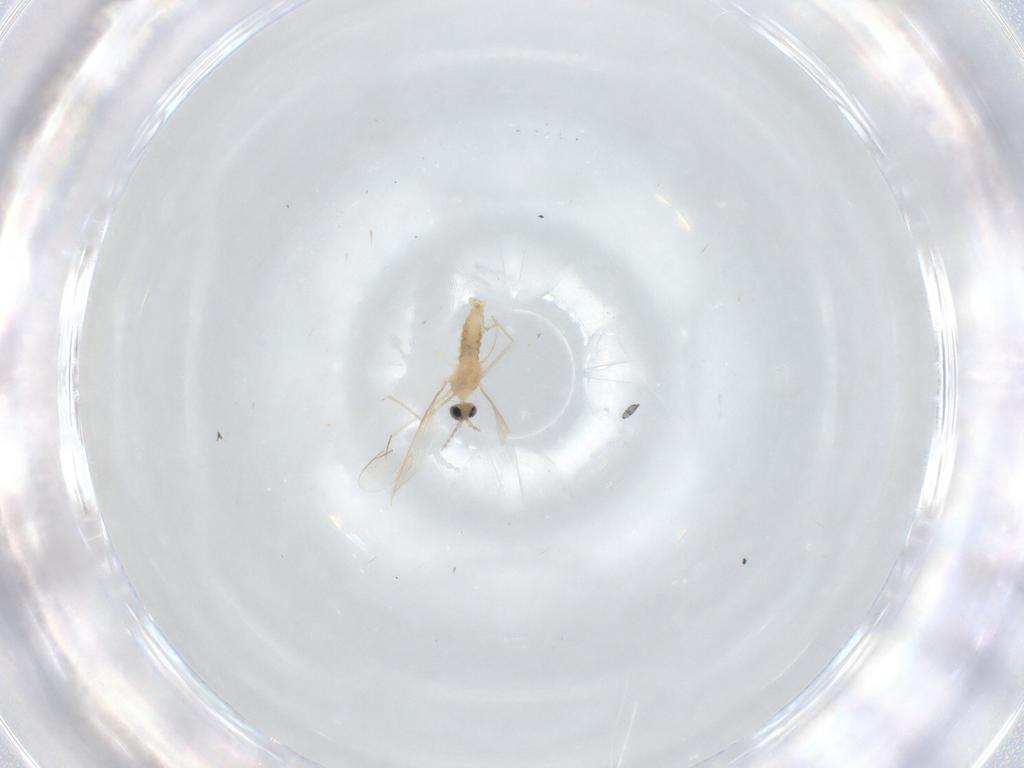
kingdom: Animalia
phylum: Arthropoda
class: Insecta
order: Diptera
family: Cecidomyiidae
